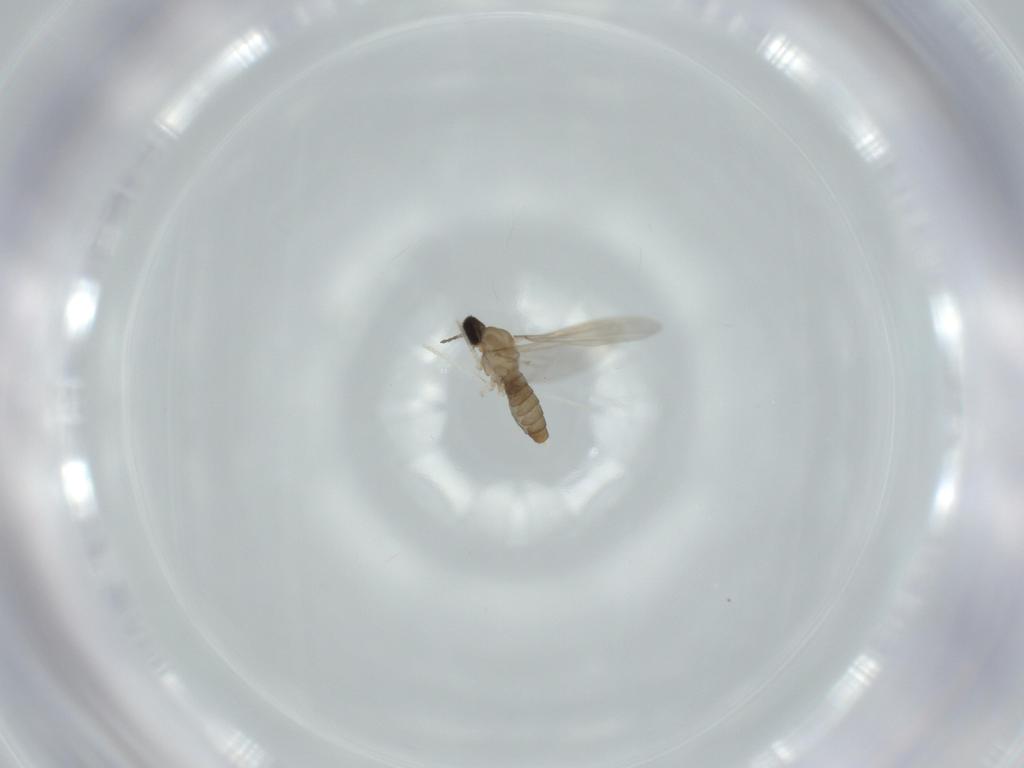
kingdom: Animalia
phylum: Arthropoda
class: Insecta
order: Diptera
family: Cecidomyiidae
